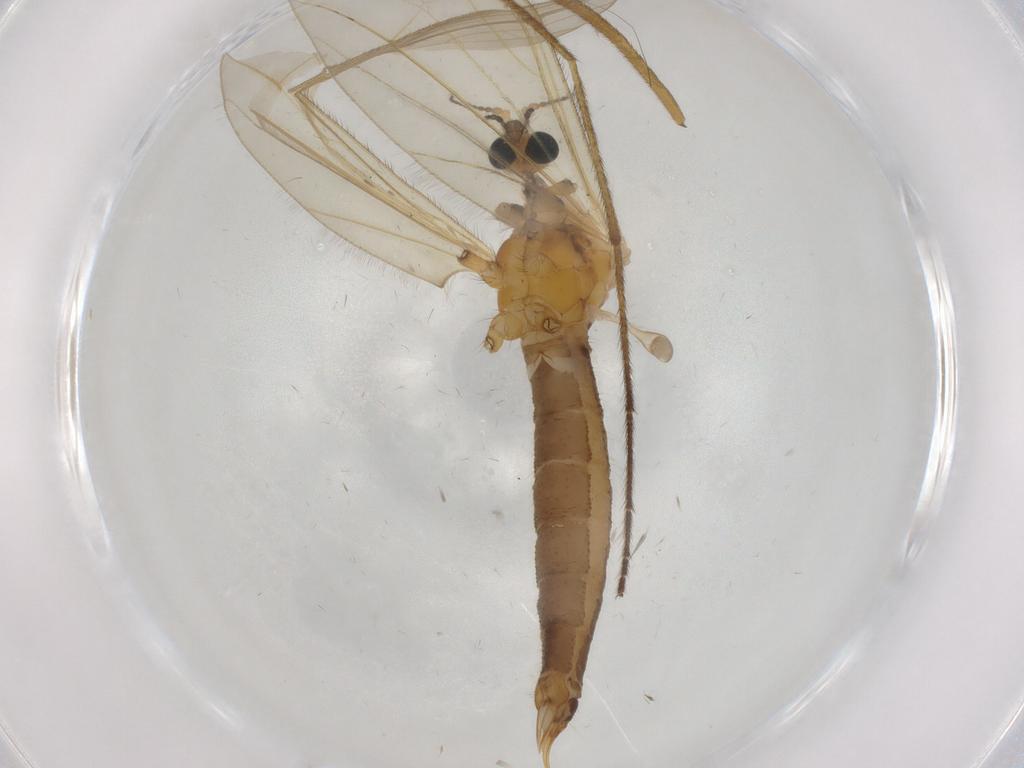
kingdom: Animalia
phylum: Arthropoda
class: Insecta
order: Diptera
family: Limoniidae
